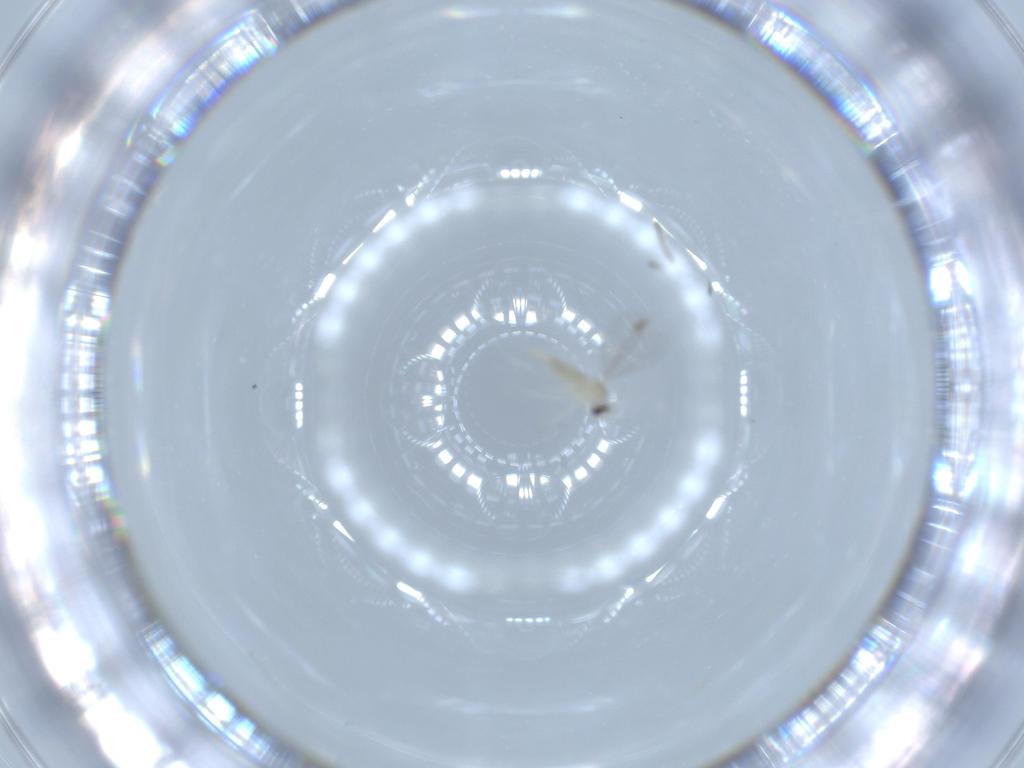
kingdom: Animalia
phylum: Arthropoda
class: Insecta
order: Diptera
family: Cecidomyiidae
